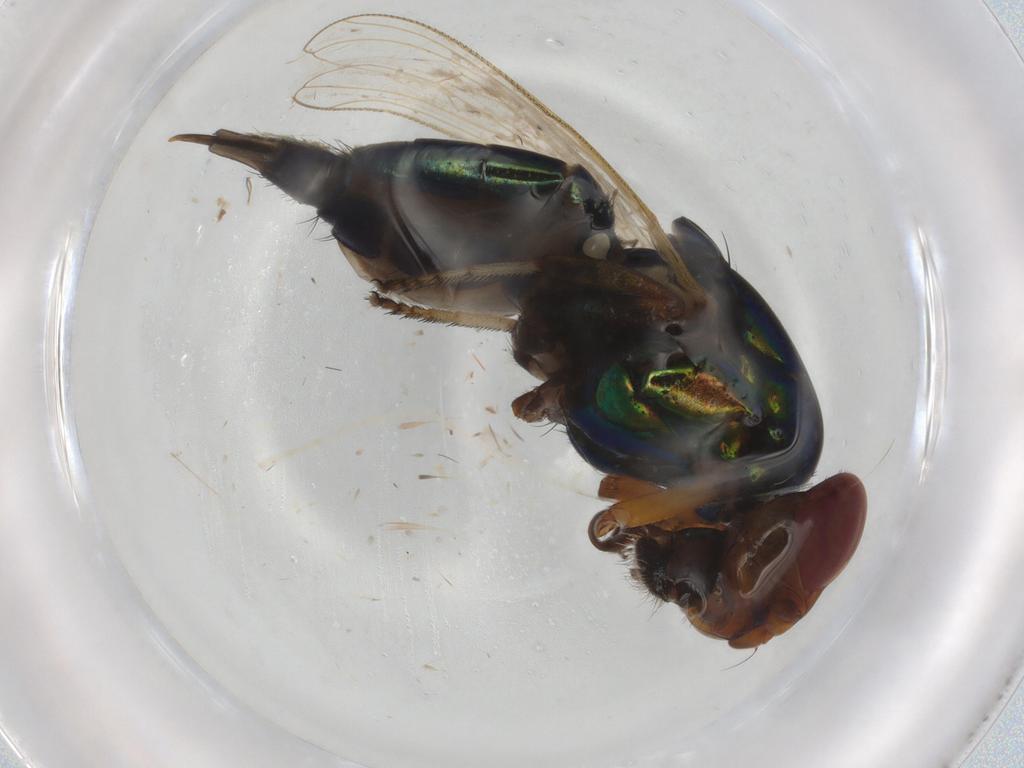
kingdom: Animalia
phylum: Arthropoda
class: Insecta
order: Diptera
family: Ulidiidae
